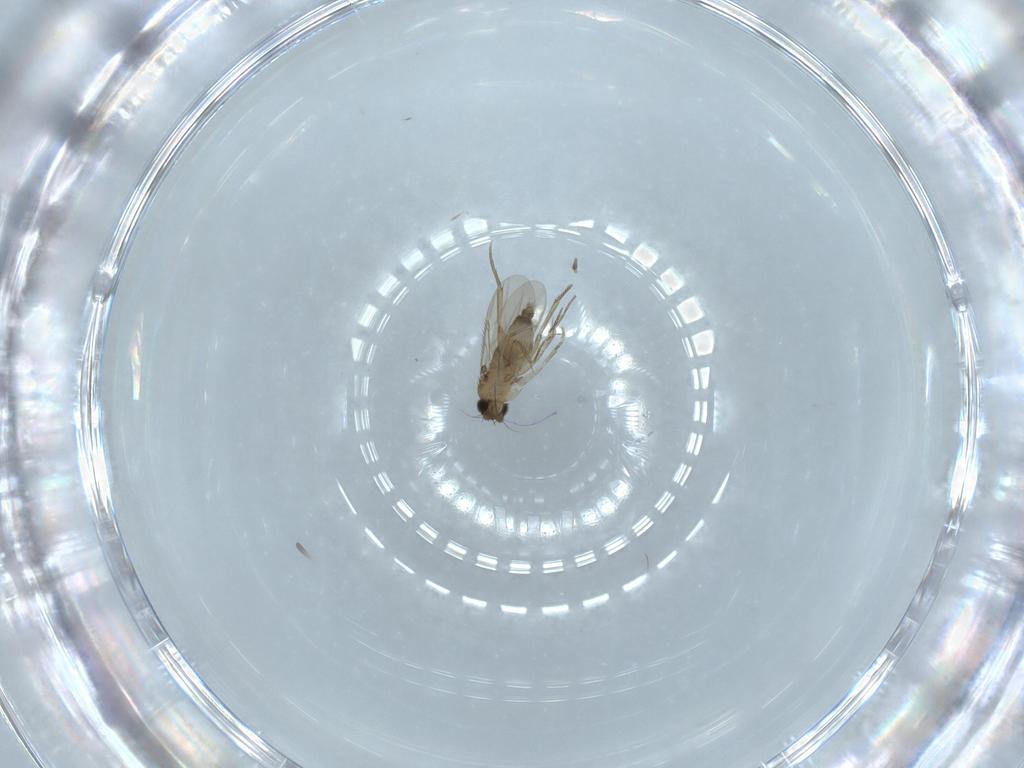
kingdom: Animalia
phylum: Arthropoda
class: Insecta
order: Diptera
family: Phoridae
